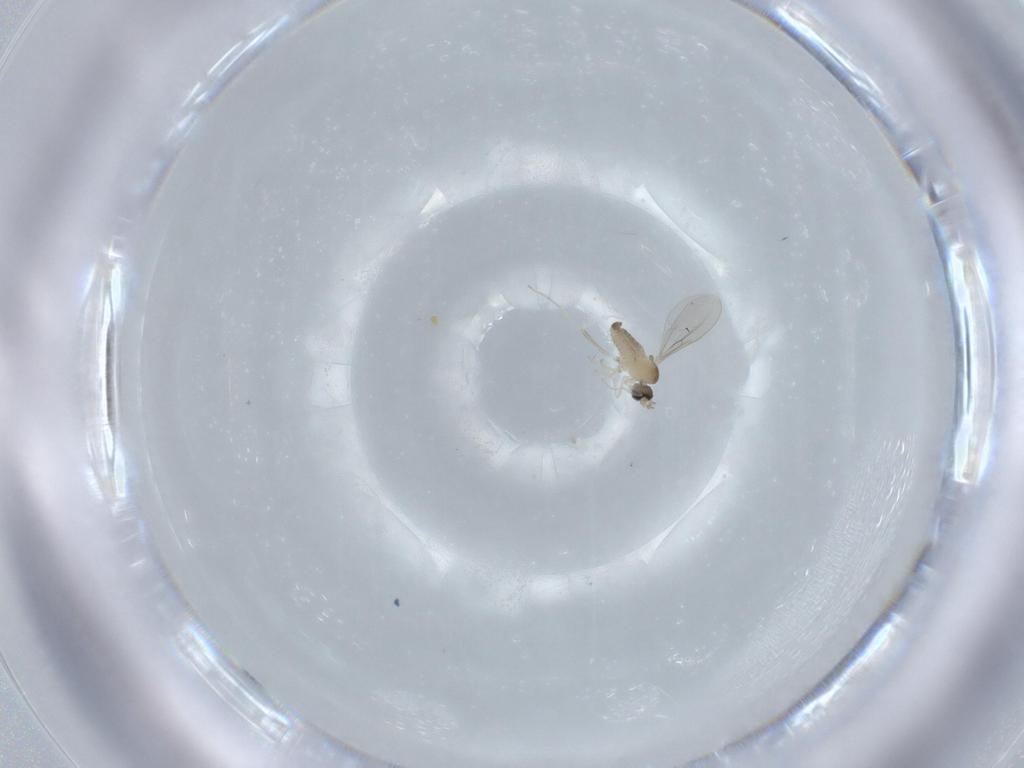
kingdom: Animalia
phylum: Arthropoda
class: Insecta
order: Diptera
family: Cecidomyiidae
